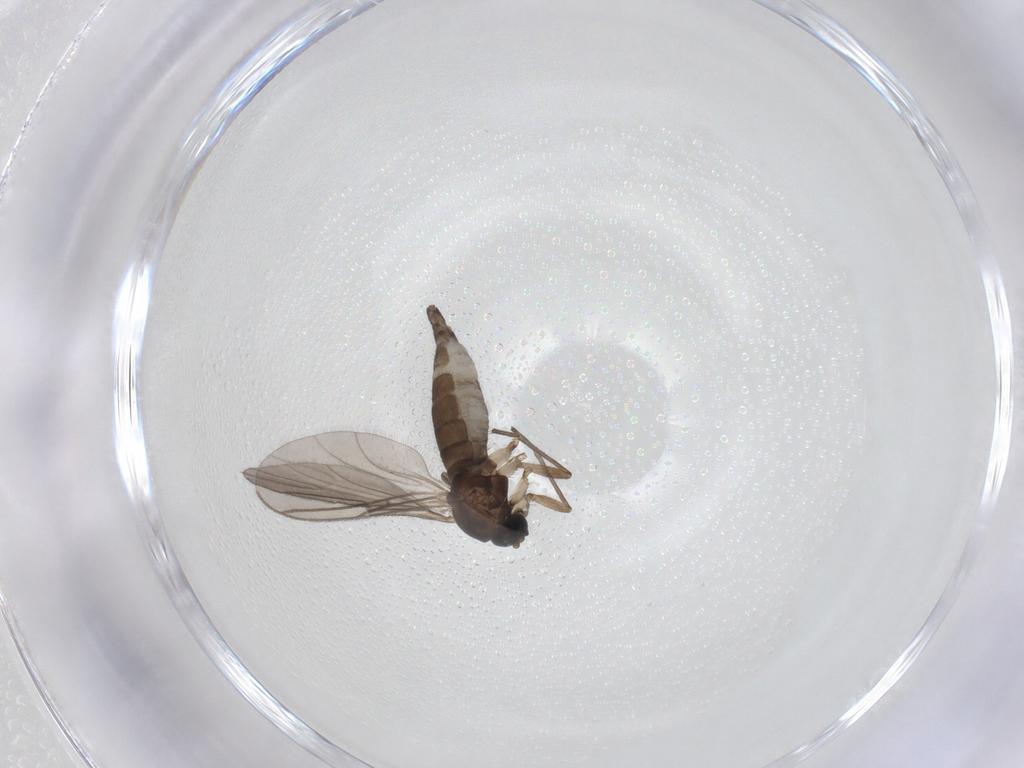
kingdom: Animalia
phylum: Arthropoda
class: Insecta
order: Diptera
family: Sciaridae
